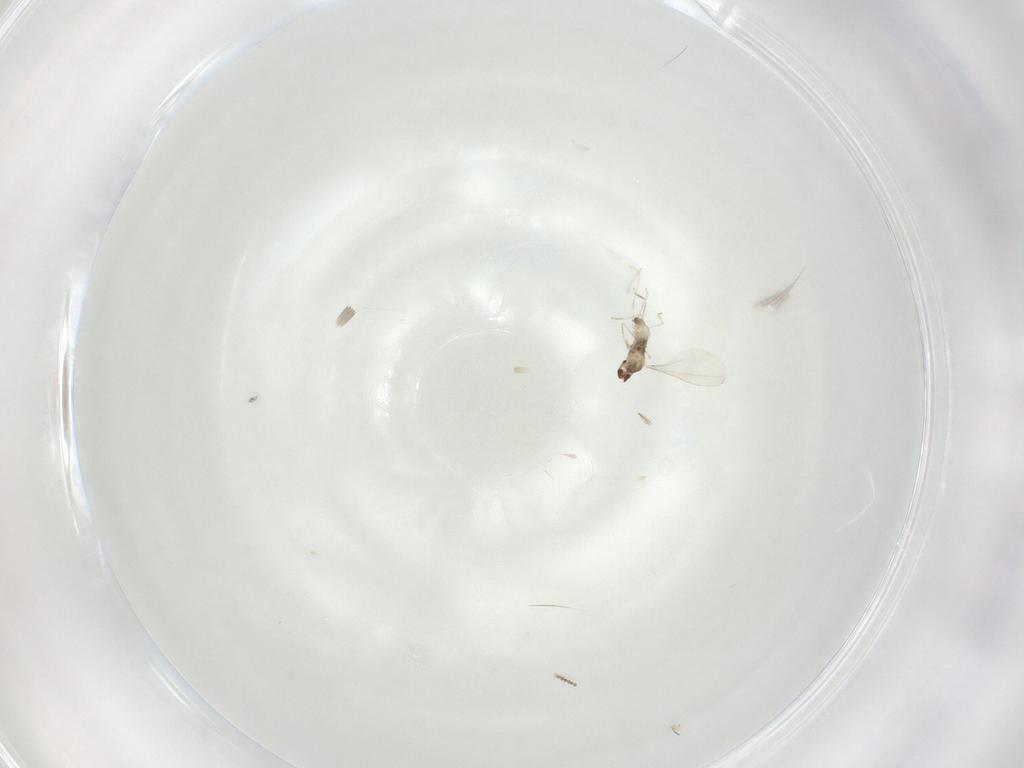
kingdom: Animalia
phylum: Arthropoda
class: Insecta
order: Diptera
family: Cecidomyiidae
